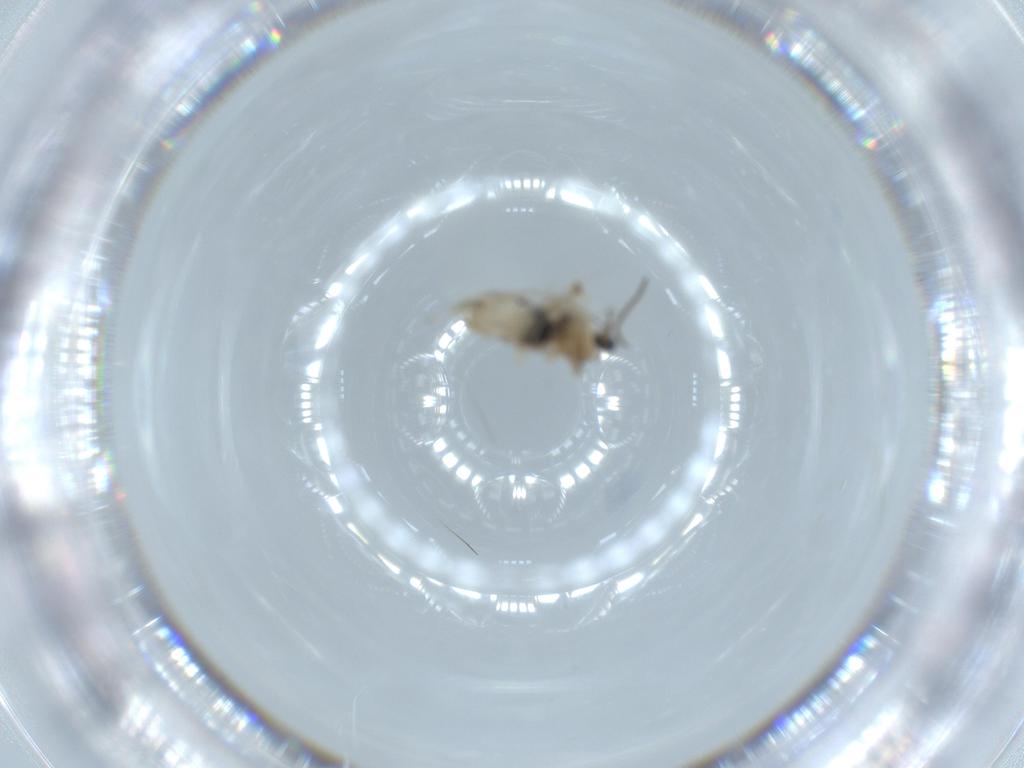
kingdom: Animalia
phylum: Arthropoda
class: Insecta
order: Diptera
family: Cecidomyiidae
